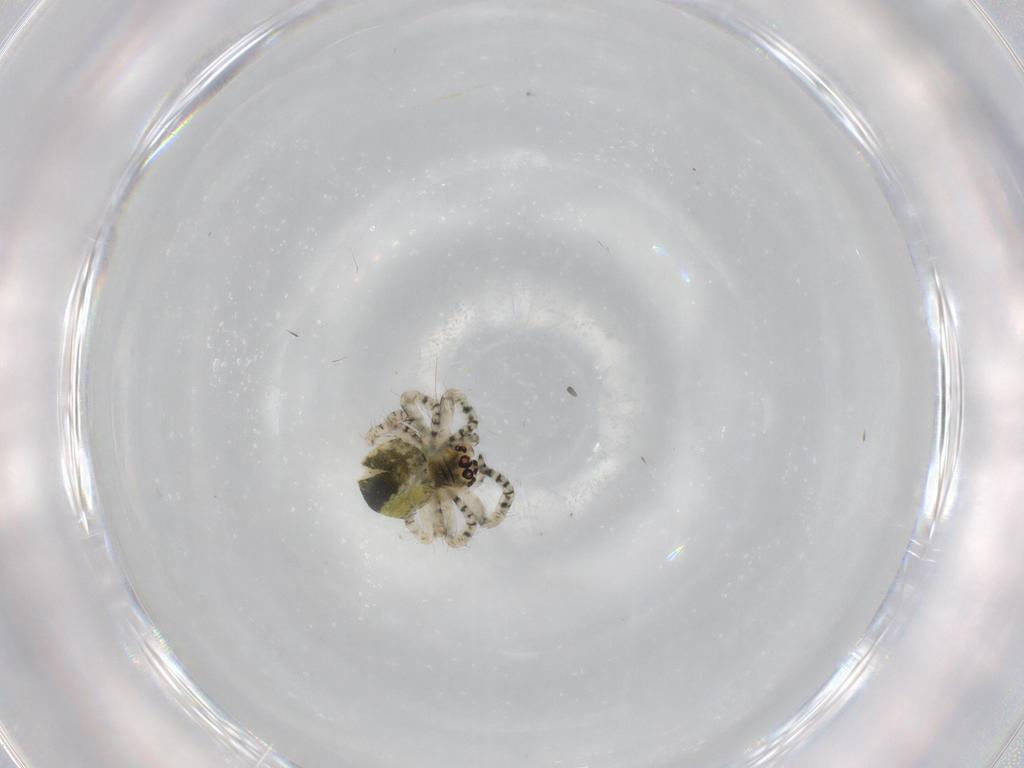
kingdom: Animalia
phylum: Arthropoda
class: Arachnida
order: Araneae
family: Araneidae
